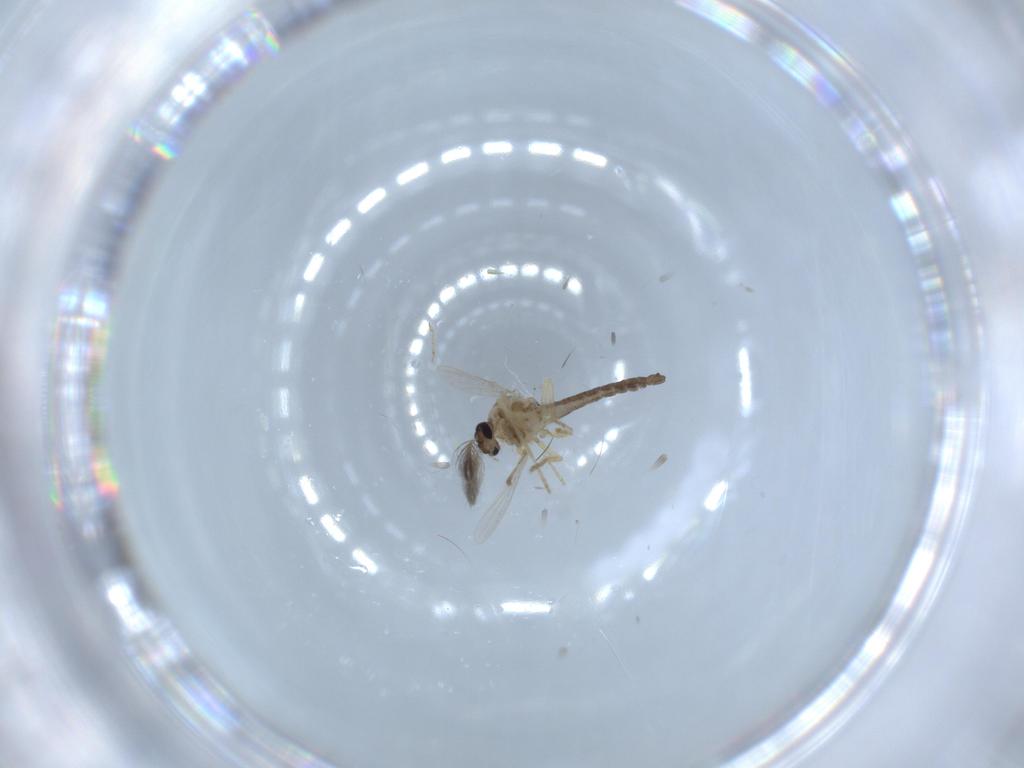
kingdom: Animalia
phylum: Arthropoda
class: Insecta
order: Diptera
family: Ceratopogonidae
